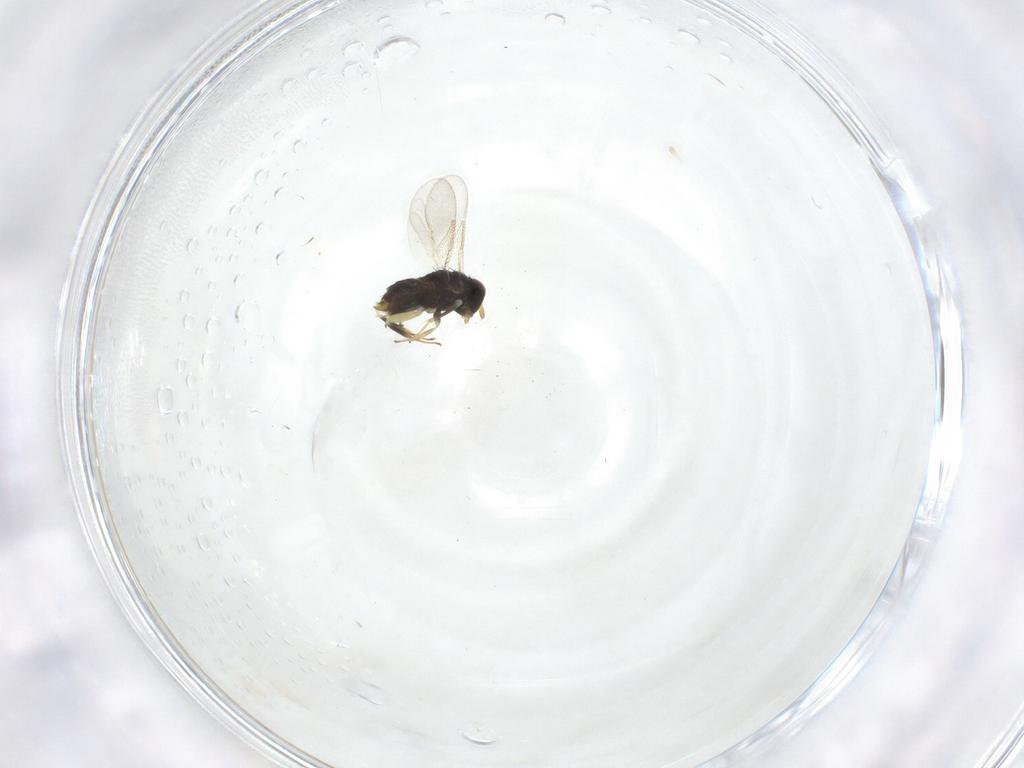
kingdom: Animalia
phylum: Arthropoda
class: Insecta
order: Hymenoptera
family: Aphelinidae
